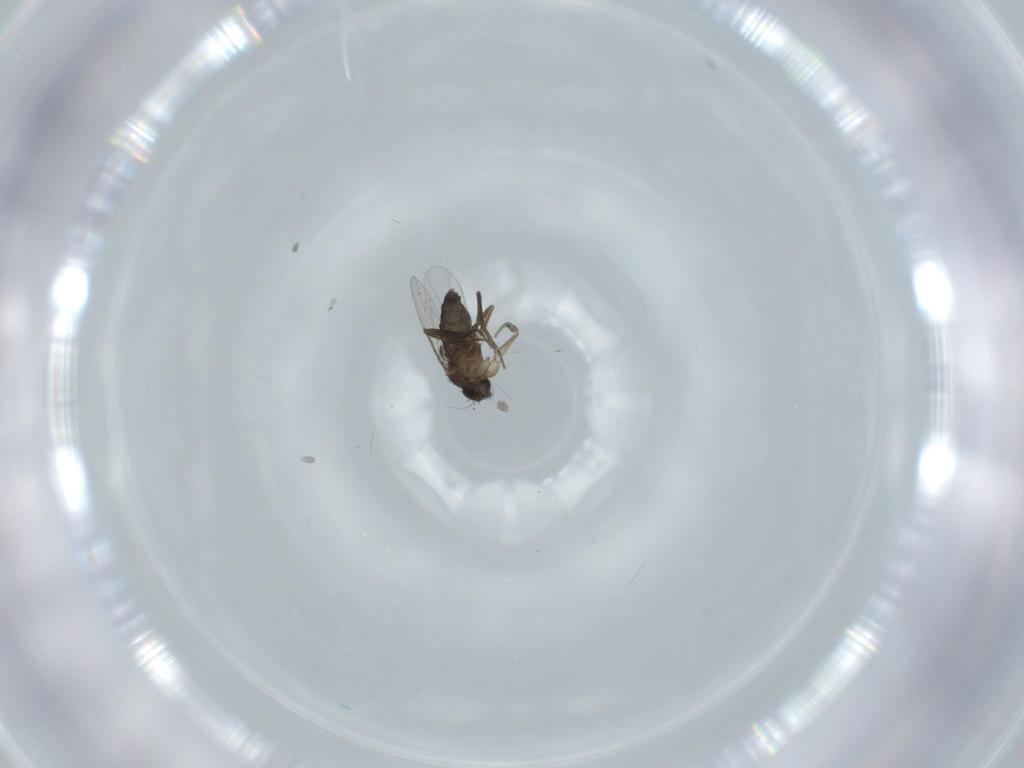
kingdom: Animalia
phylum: Arthropoda
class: Insecta
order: Diptera
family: Phoridae
